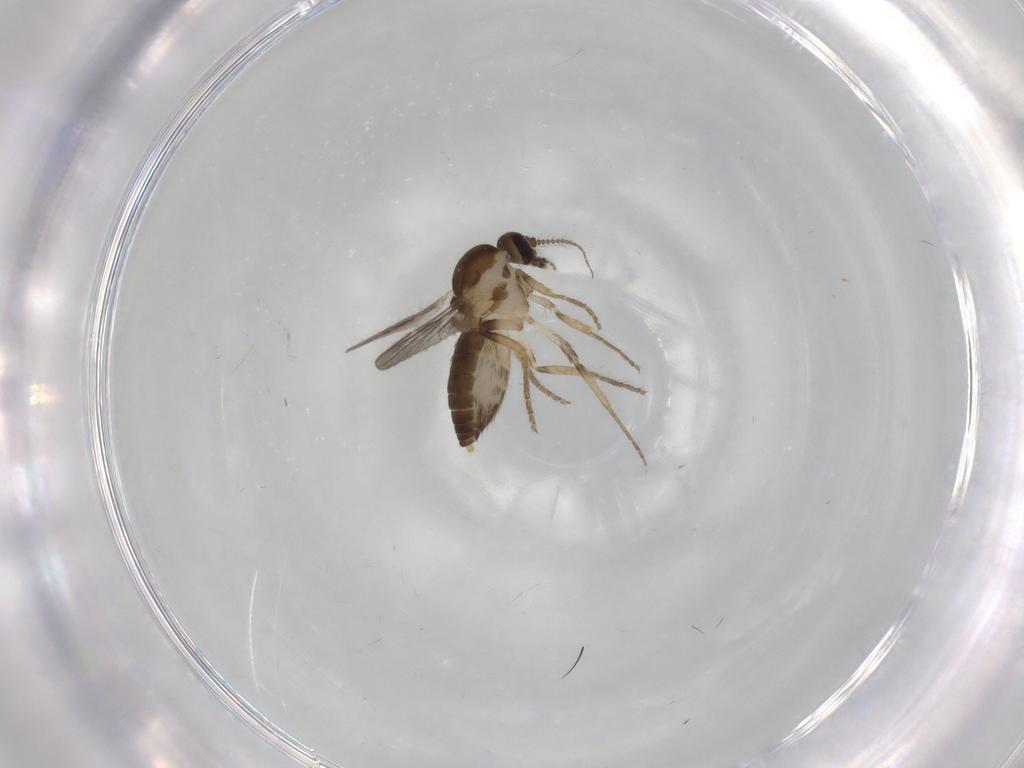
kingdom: Animalia
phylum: Arthropoda
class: Insecta
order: Diptera
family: Ceratopogonidae
